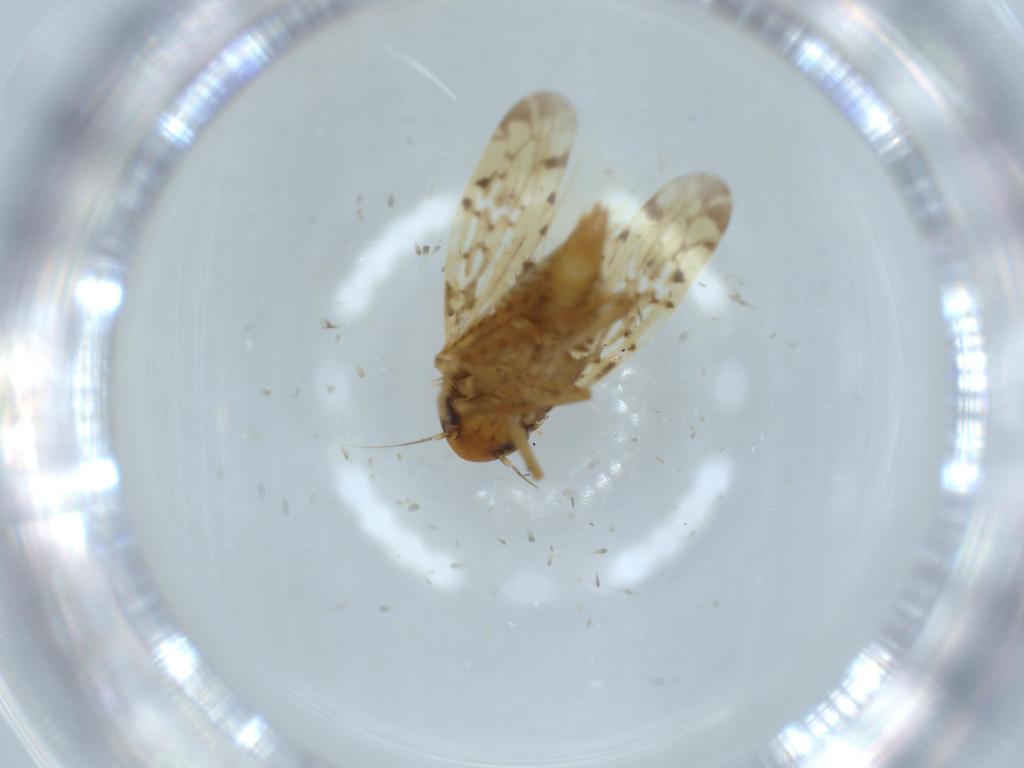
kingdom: Animalia
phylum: Arthropoda
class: Insecta
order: Hemiptera
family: Cicadellidae
